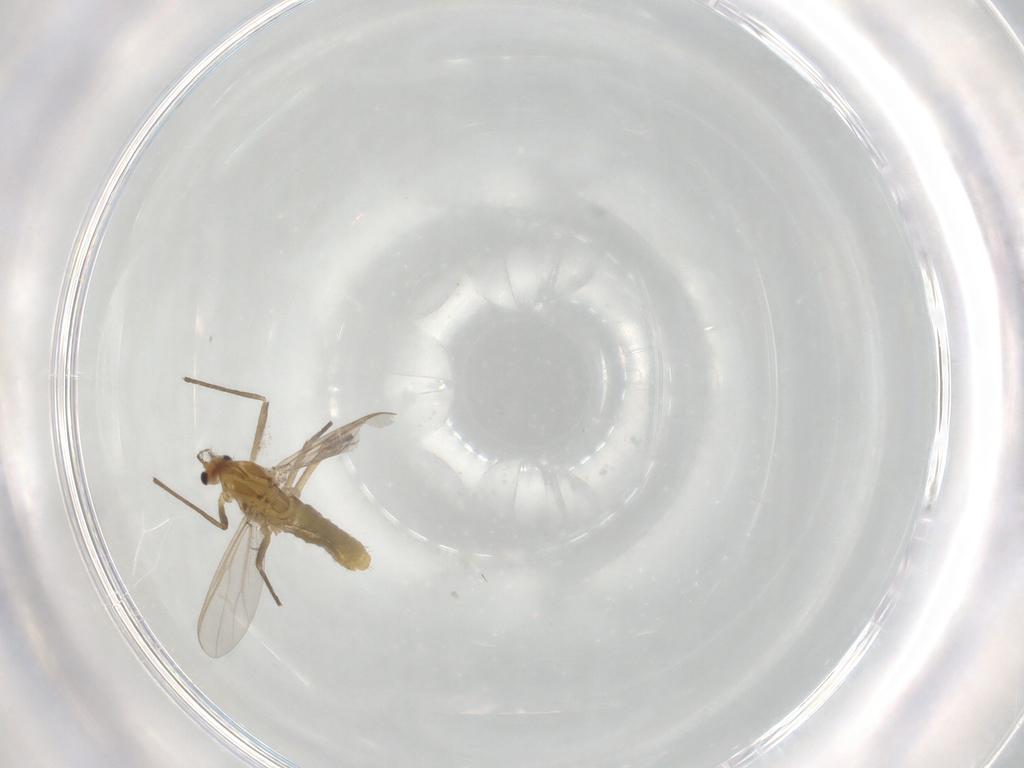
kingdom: Animalia
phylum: Arthropoda
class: Insecta
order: Diptera
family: Chironomidae
